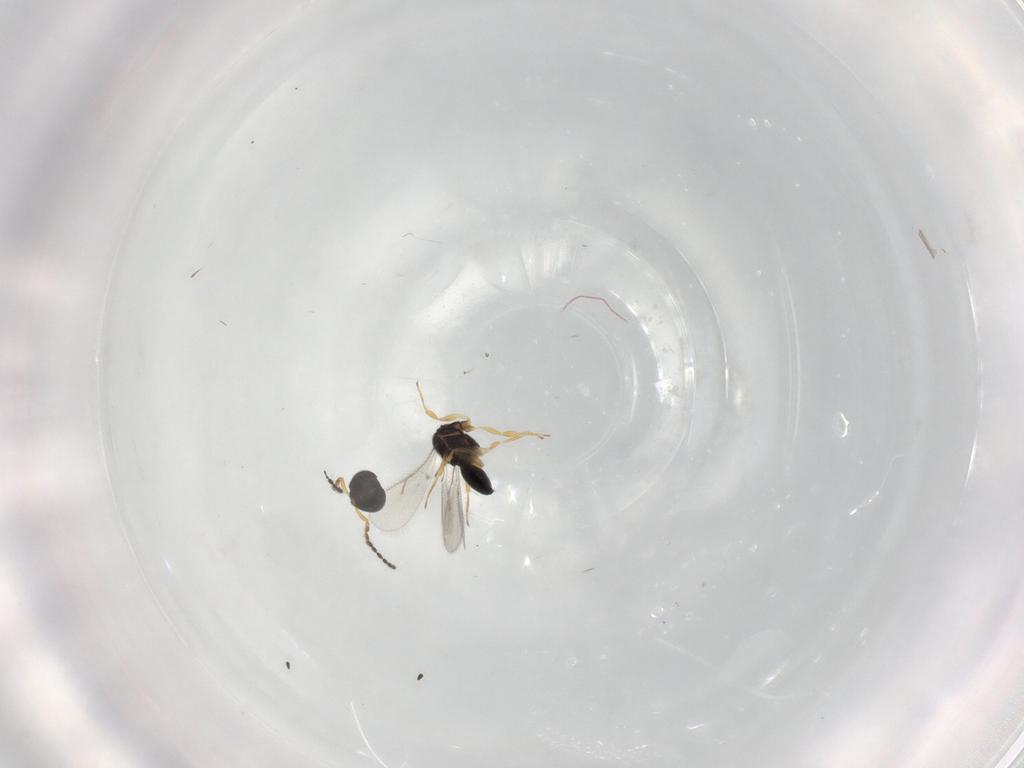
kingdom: Animalia
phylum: Arthropoda
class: Insecta
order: Hymenoptera
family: Scelionidae
